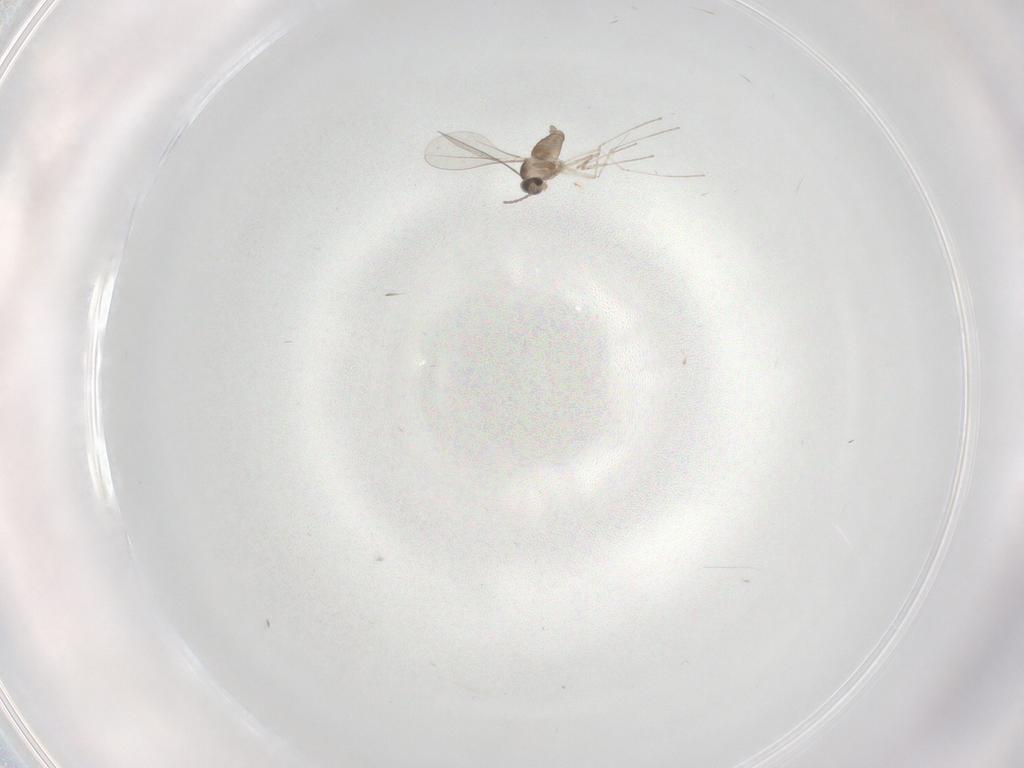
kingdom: Animalia
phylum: Arthropoda
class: Insecta
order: Diptera
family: Cecidomyiidae
